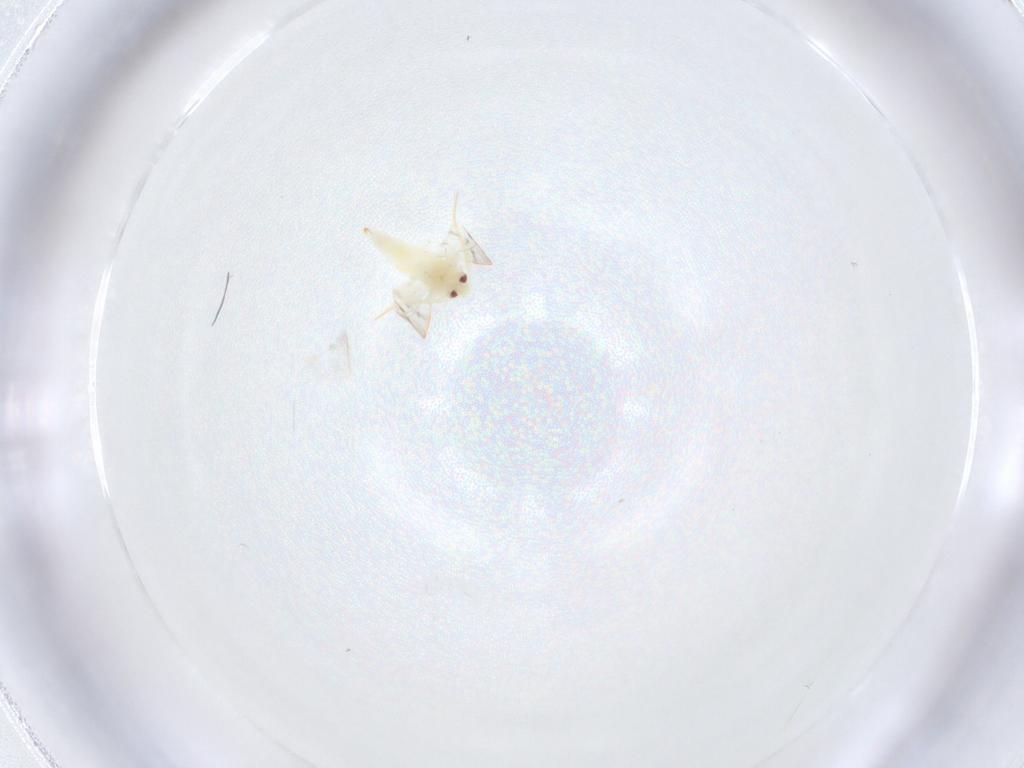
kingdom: Animalia
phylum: Arthropoda
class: Insecta
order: Hemiptera
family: Aleyrodidae
